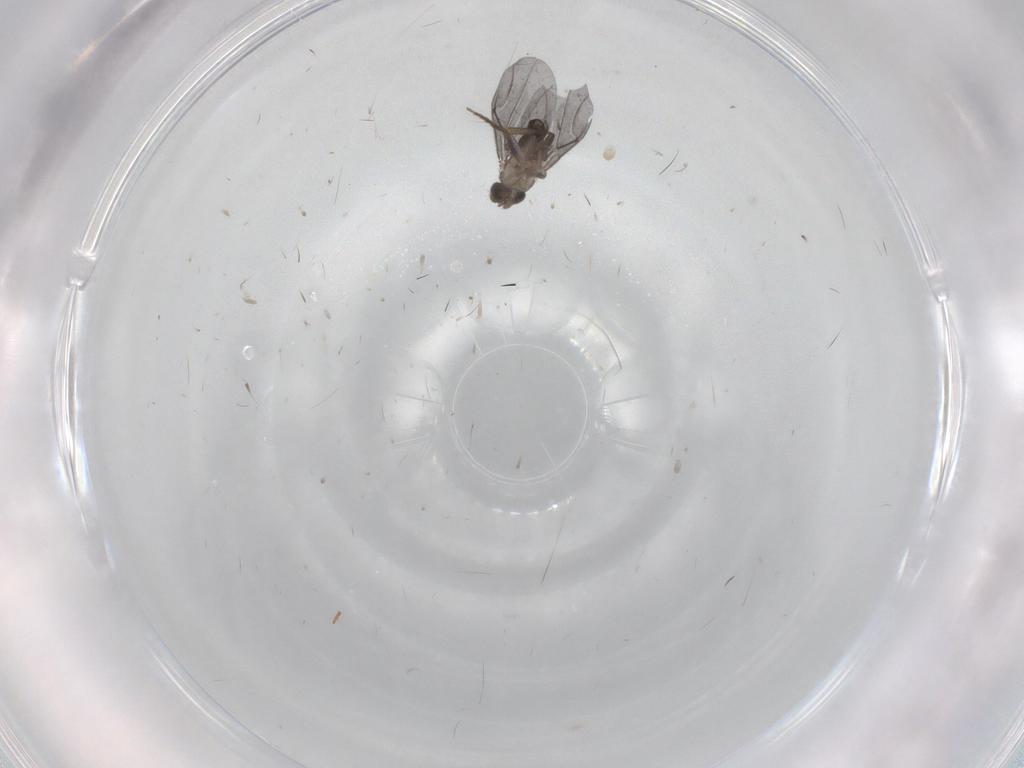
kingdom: Animalia
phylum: Arthropoda
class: Insecta
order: Diptera
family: Phoridae
